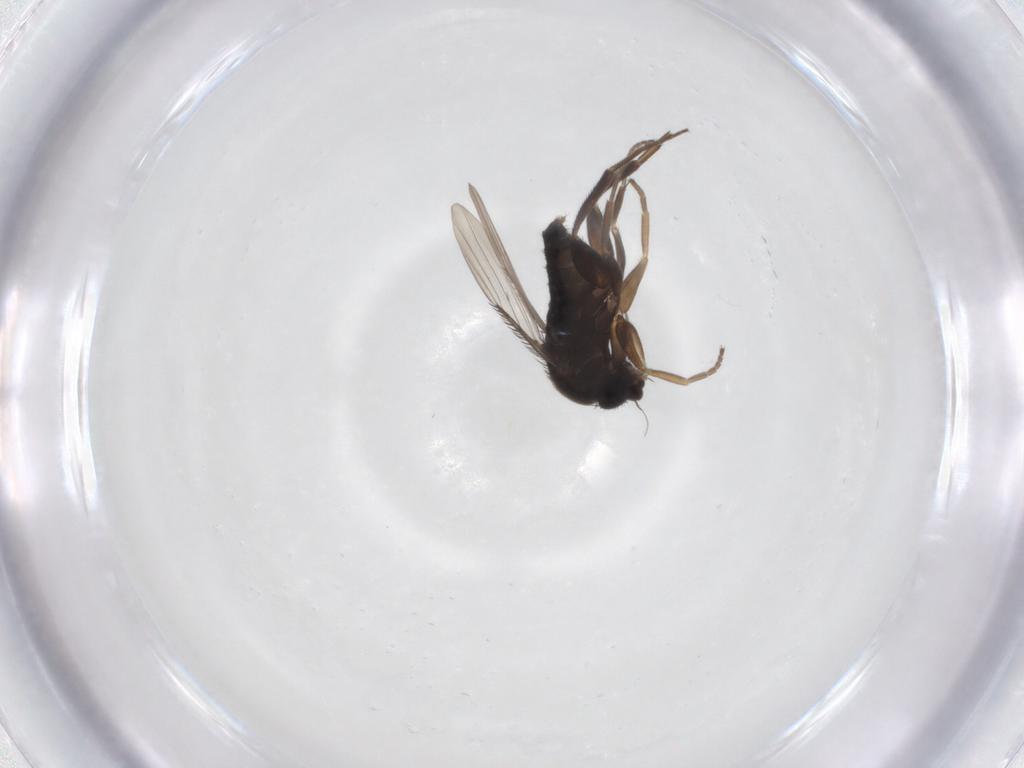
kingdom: Animalia
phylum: Arthropoda
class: Insecta
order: Diptera
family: Phoridae
